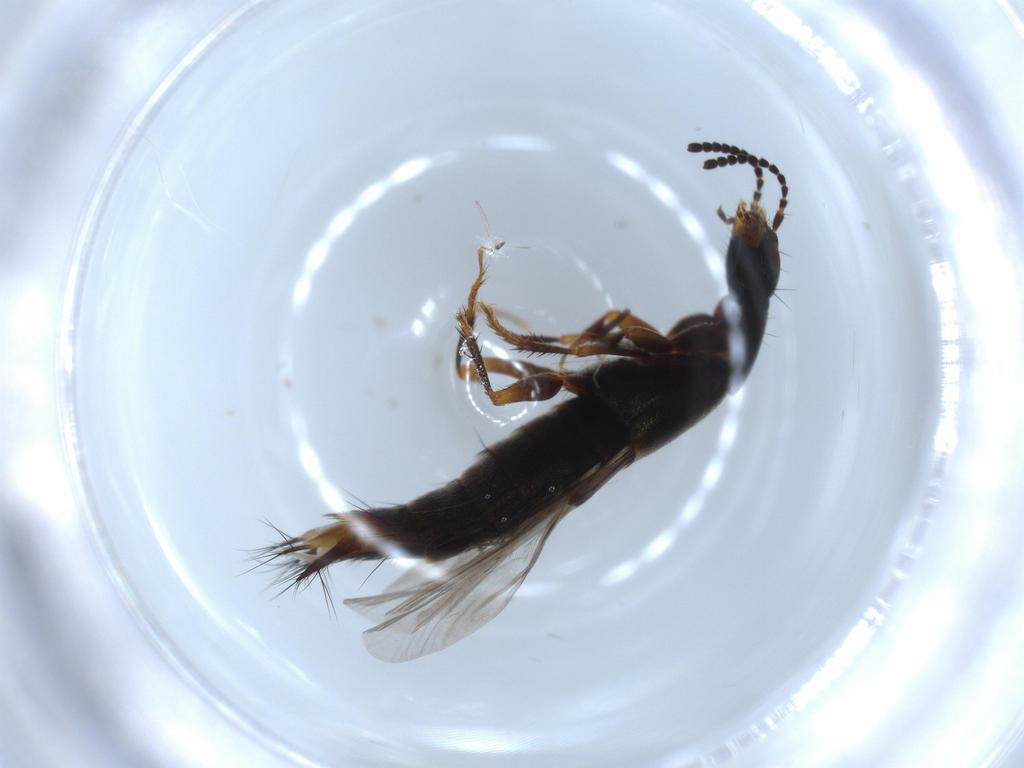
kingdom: Animalia
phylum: Arthropoda
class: Insecta
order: Coleoptera
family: Staphylinidae
